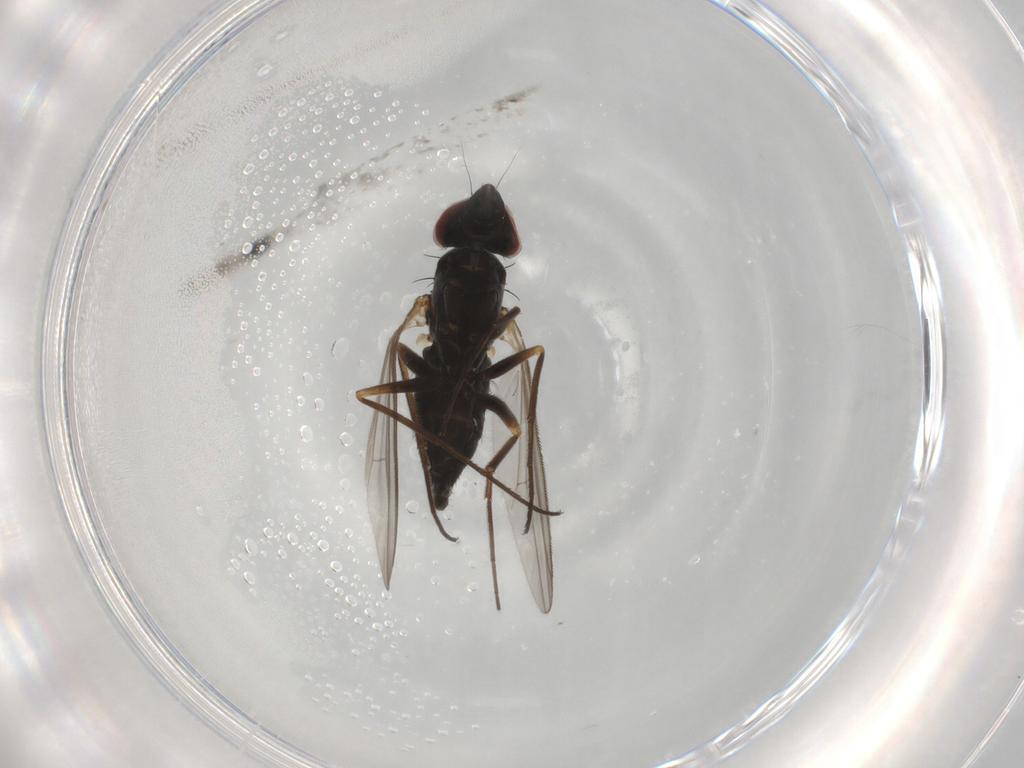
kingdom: Animalia
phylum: Arthropoda
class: Insecta
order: Diptera
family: Dolichopodidae
